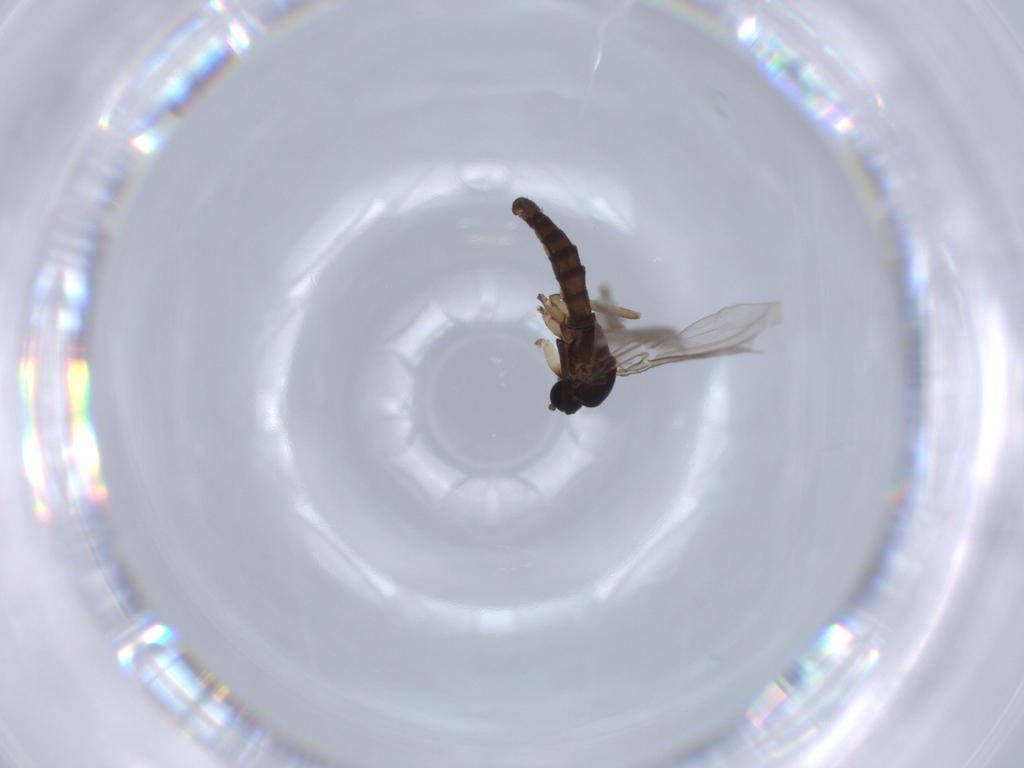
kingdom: Animalia
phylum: Arthropoda
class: Insecta
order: Diptera
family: Sciaridae
